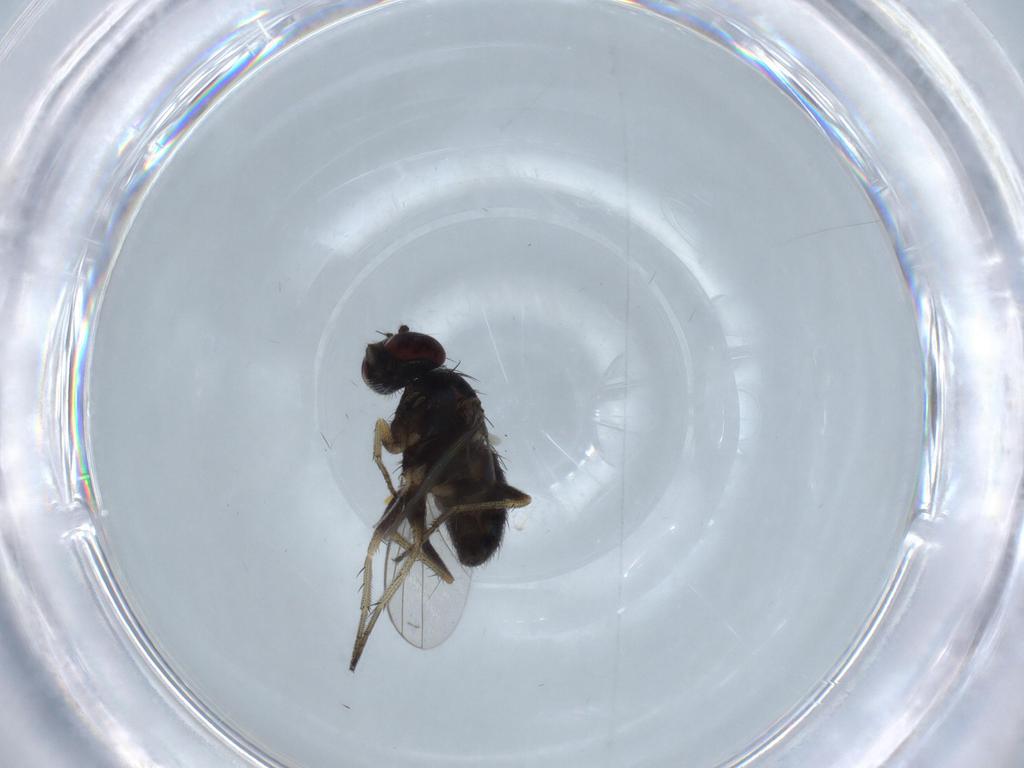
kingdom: Animalia
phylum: Arthropoda
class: Insecta
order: Diptera
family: Dolichopodidae
